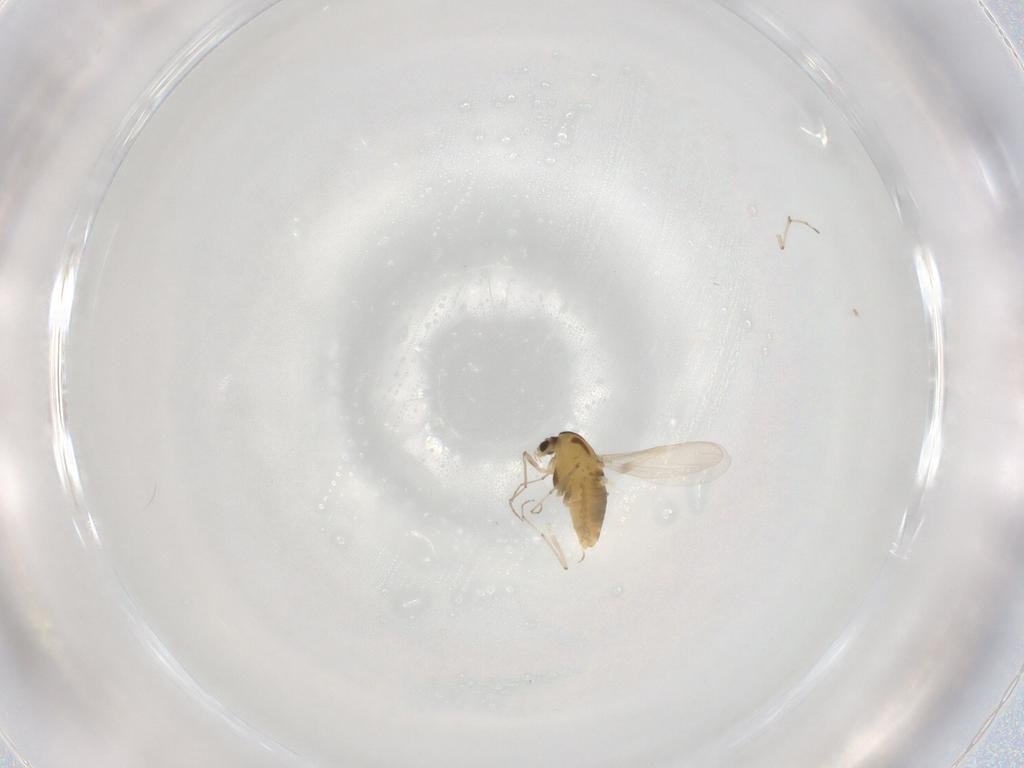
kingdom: Animalia
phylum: Arthropoda
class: Insecta
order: Diptera
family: Chironomidae
